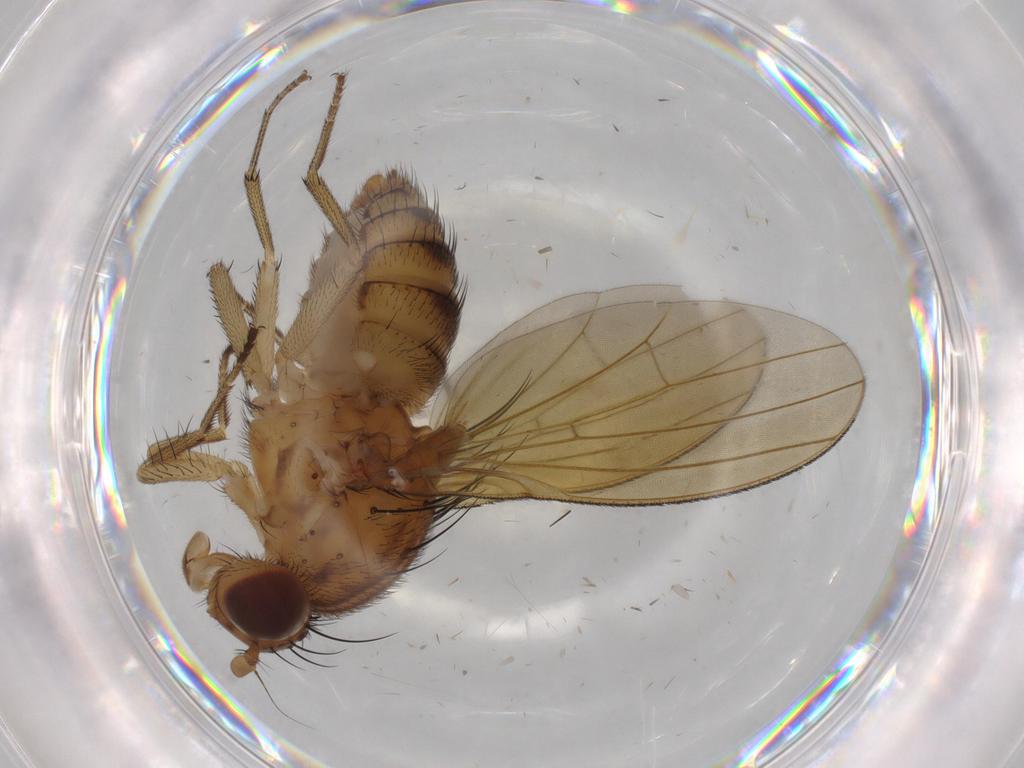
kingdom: Animalia
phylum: Arthropoda
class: Insecta
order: Diptera
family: Chironomidae
